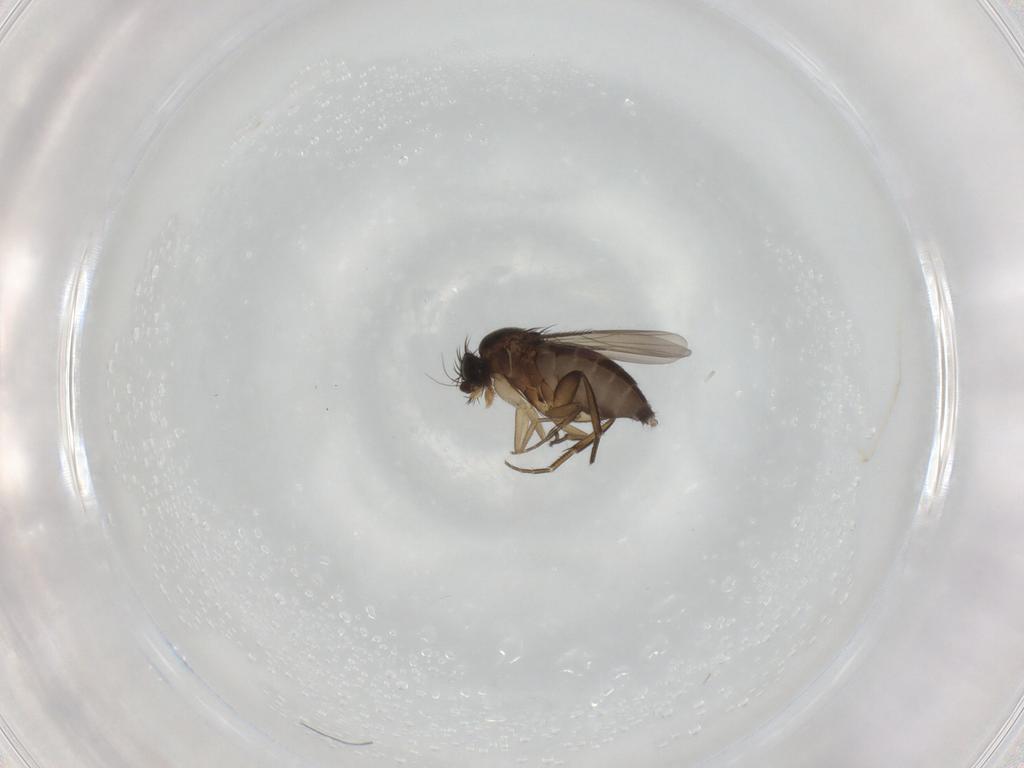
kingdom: Animalia
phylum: Arthropoda
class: Insecta
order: Diptera
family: Phoridae
